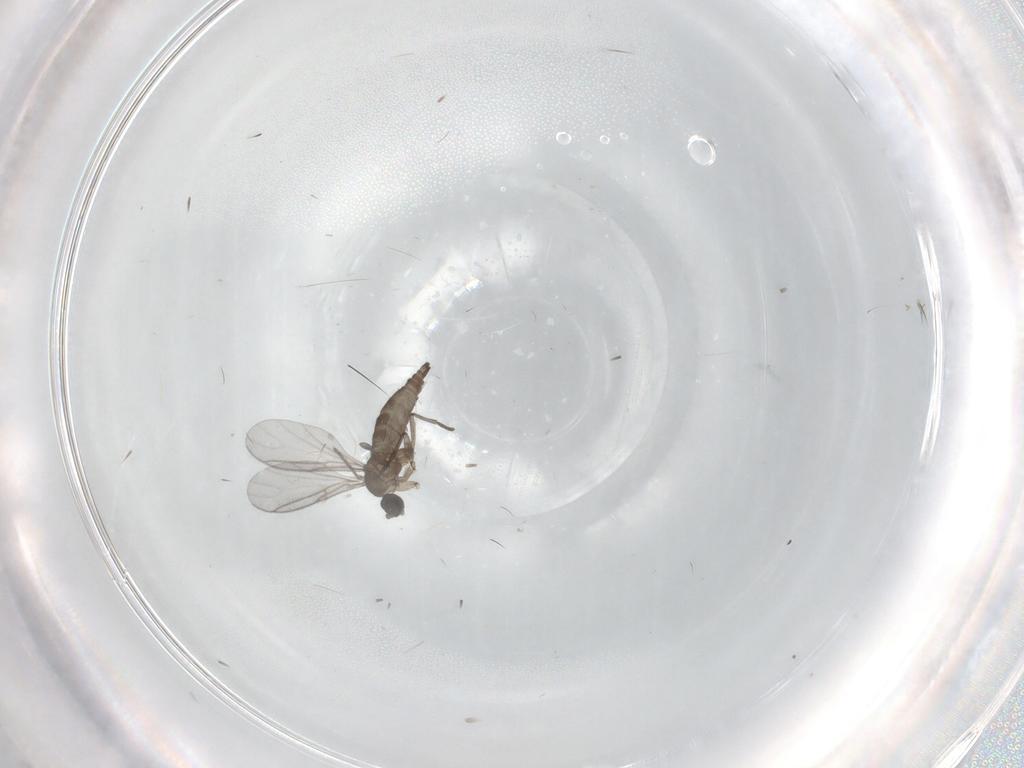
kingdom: Animalia
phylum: Arthropoda
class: Insecta
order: Diptera
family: Sciaridae
